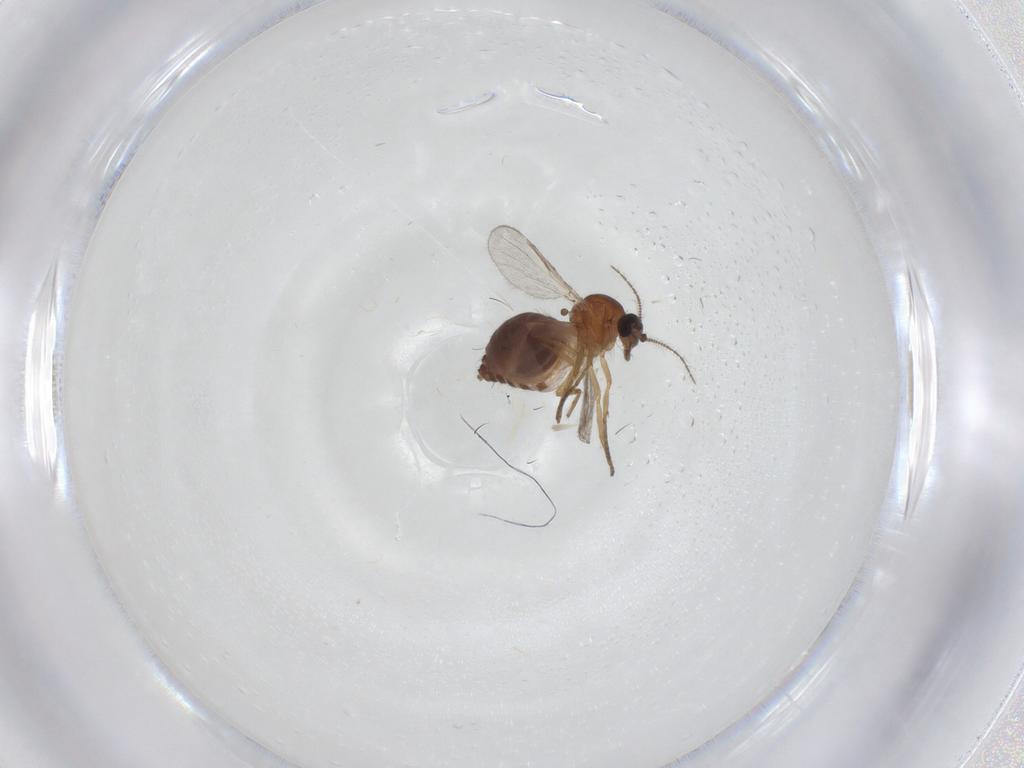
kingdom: Animalia
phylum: Arthropoda
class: Insecta
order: Diptera
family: Ceratopogonidae
